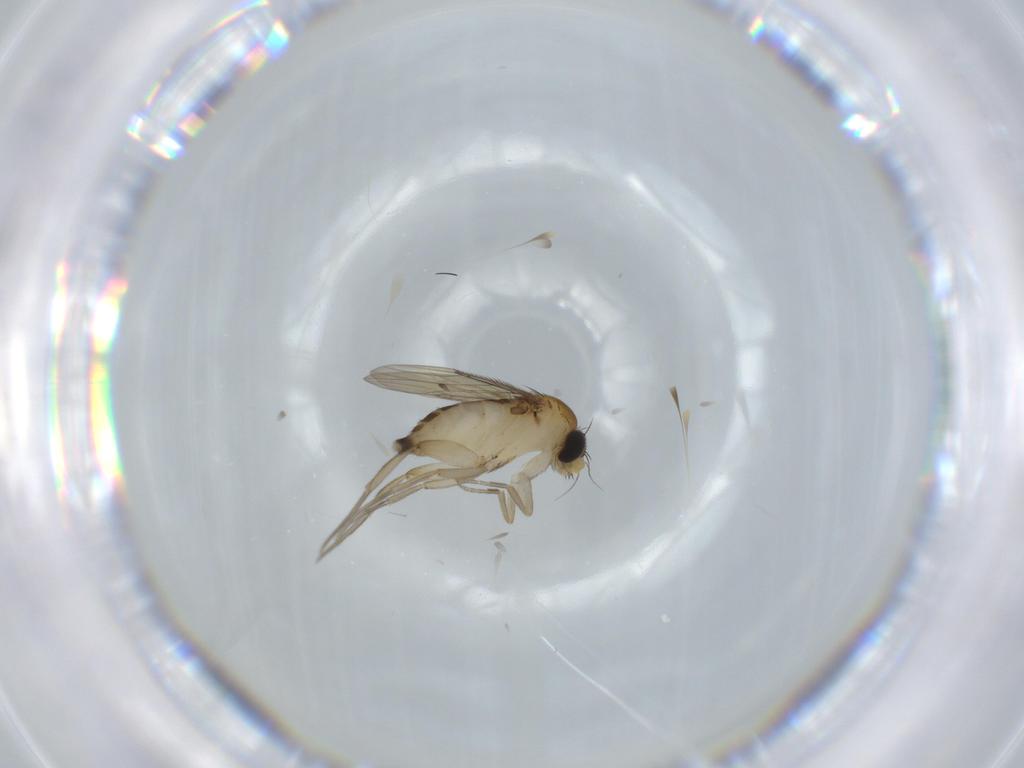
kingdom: Animalia
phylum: Arthropoda
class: Insecta
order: Diptera
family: Phoridae
